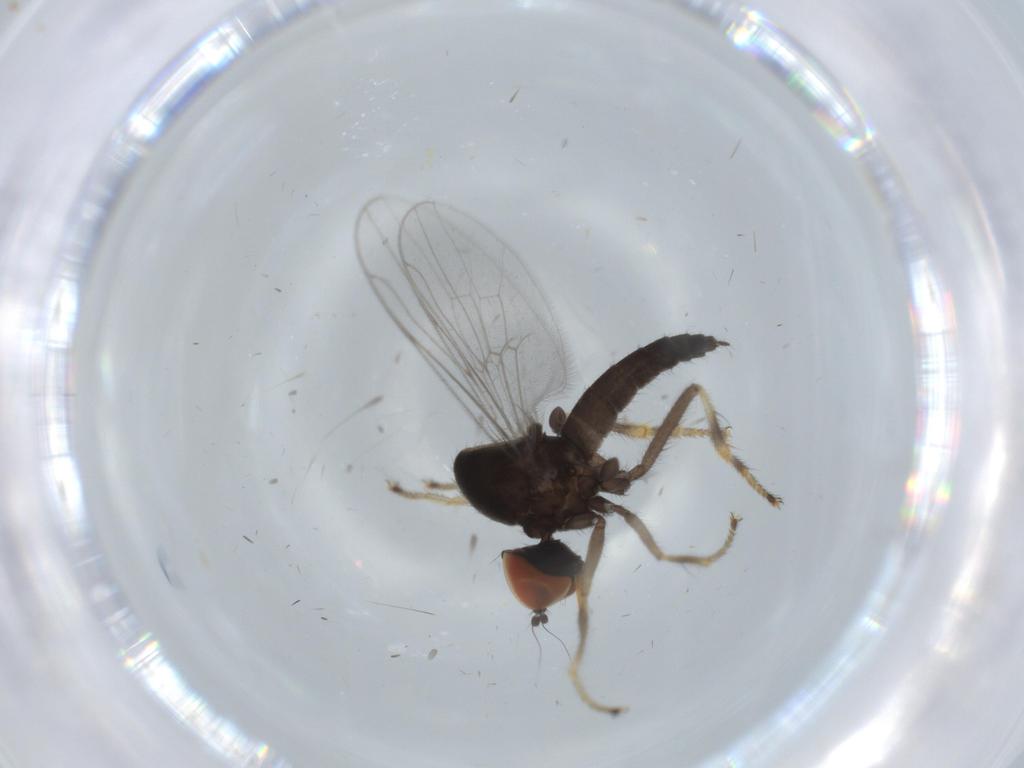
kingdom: Animalia
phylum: Arthropoda
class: Insecta
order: Diptera
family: Hybotidae
